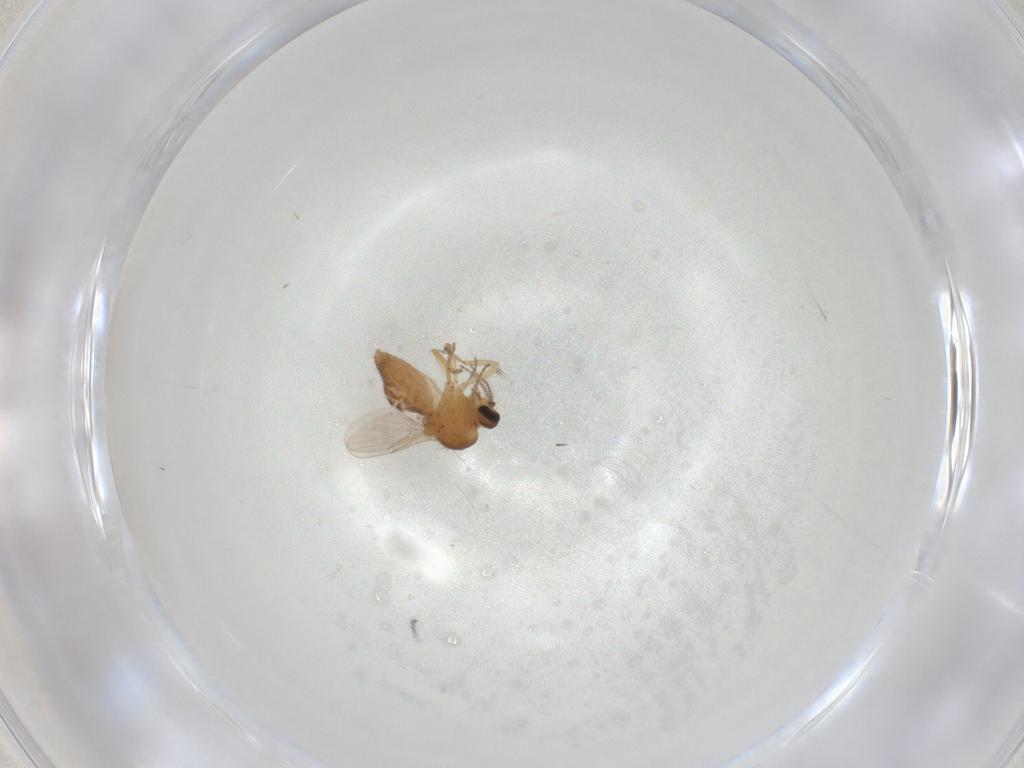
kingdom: Animalia
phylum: Arthropoda
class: Insecta
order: Diptera
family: Ceratopogonidae
